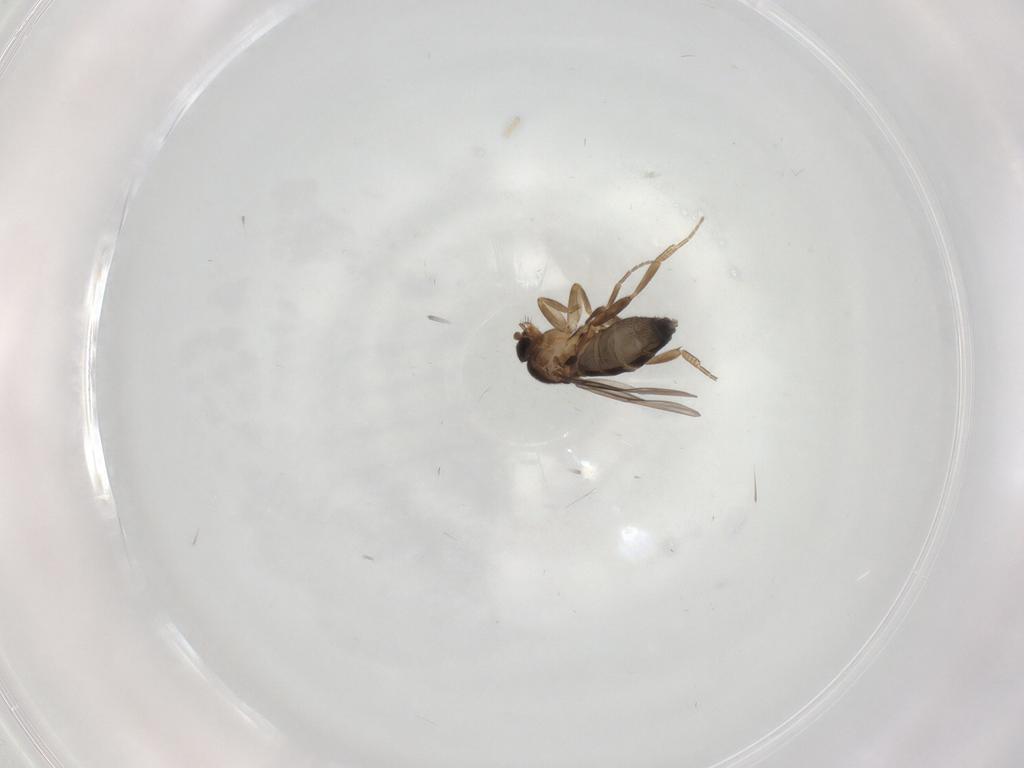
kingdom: Animalia
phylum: Arthropoda
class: Insecta
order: Diptera
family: Phoridae
